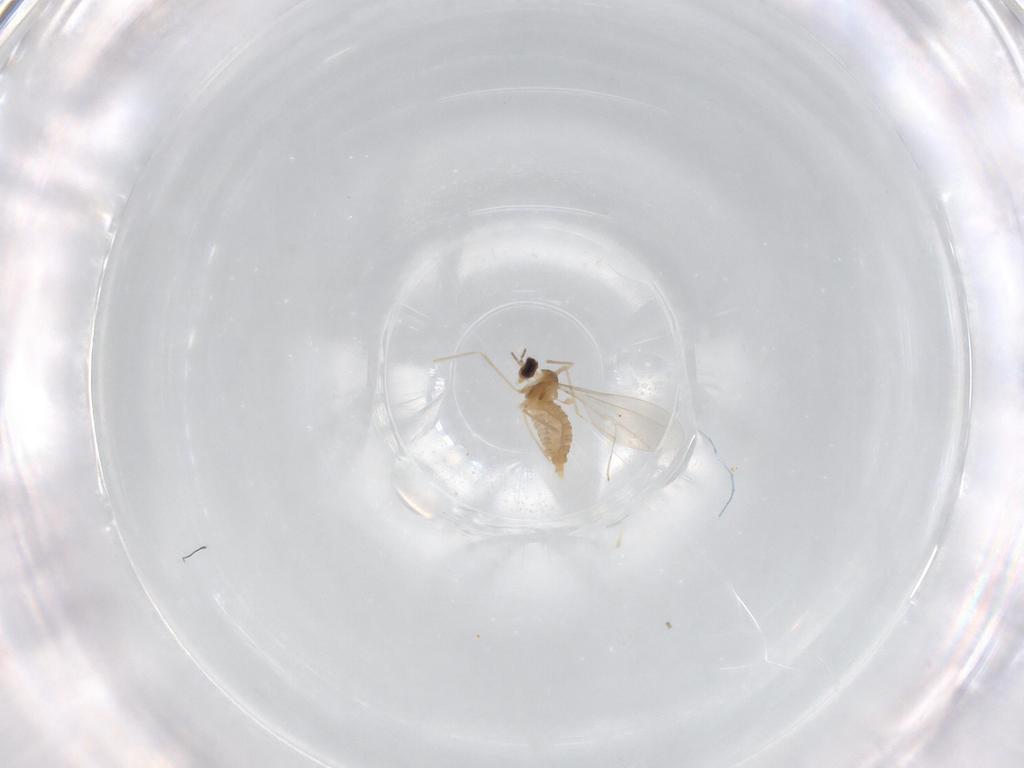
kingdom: Animalia
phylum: Arthropoda
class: Insecta
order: Diptera
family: Cecidomyiidae
